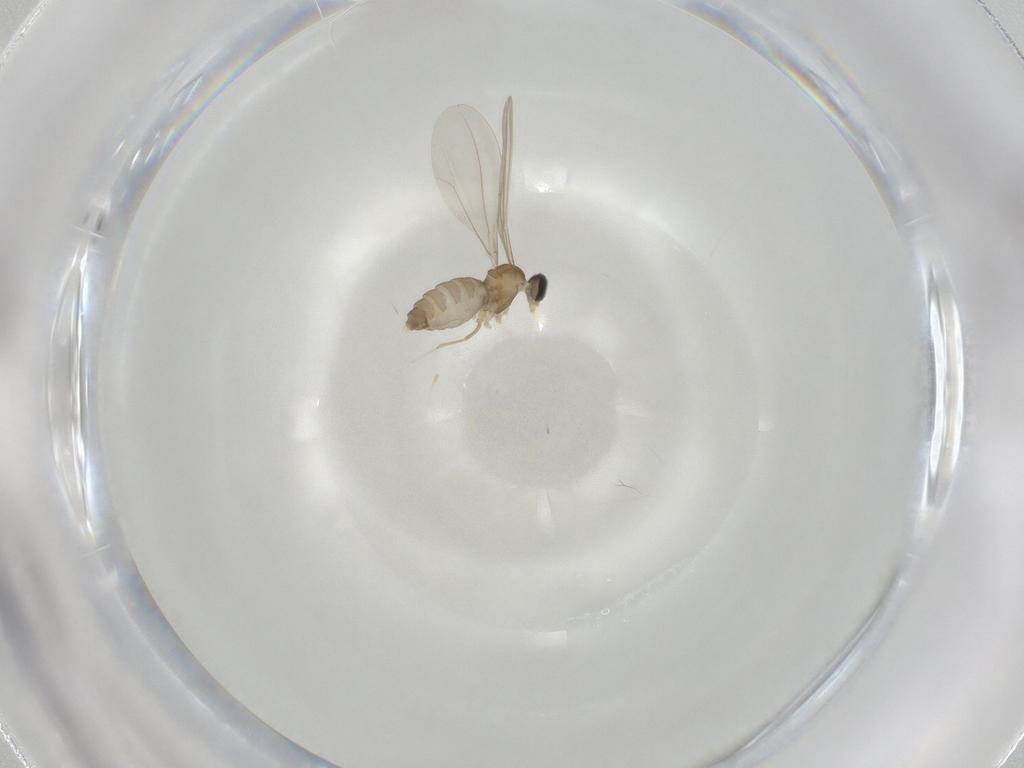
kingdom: Animalia
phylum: Arthropoda
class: Insecta
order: Diptera
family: Cecidomyiidae
